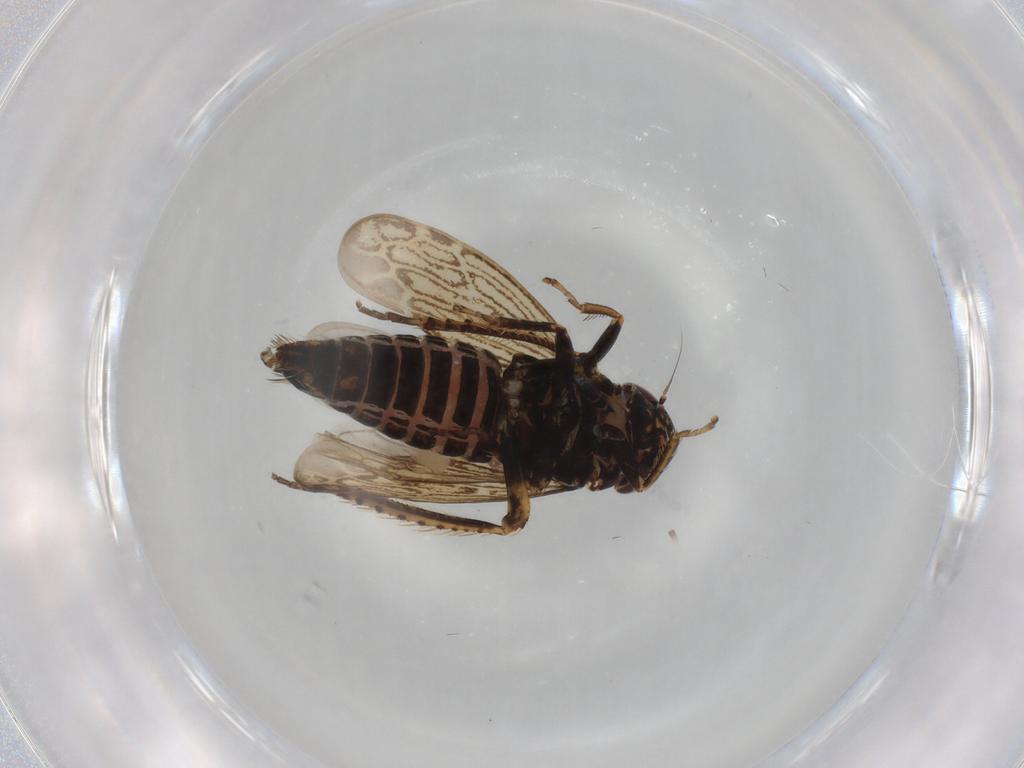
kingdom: Animalia
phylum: Arthropoda
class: Insecta
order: Hemiptera
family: Cicadellidae
